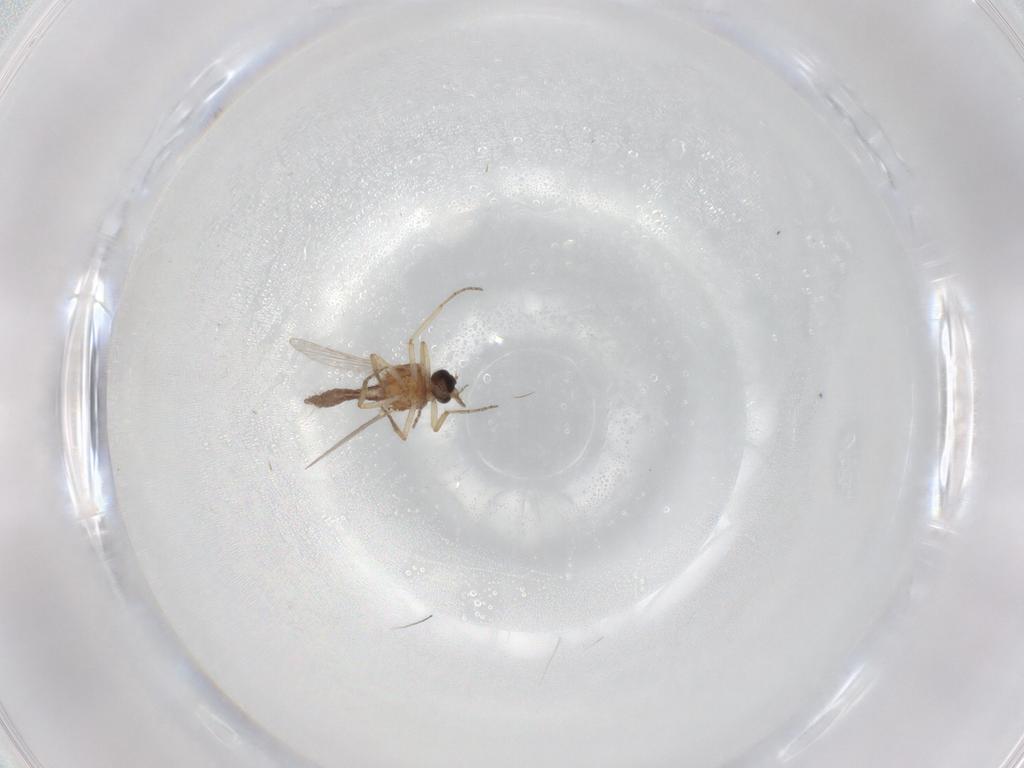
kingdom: Animalia
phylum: Arthropoda
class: Insecta
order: Diptera
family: Ceratopogonidae
